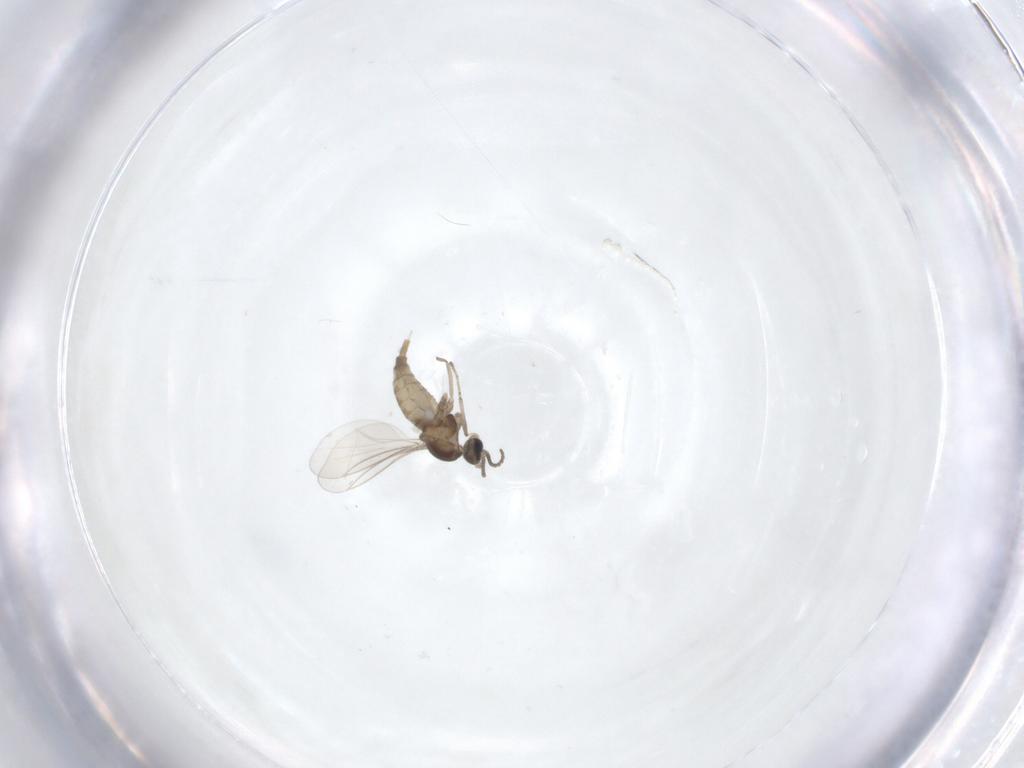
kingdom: Animalia
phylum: Arthropoda
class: Insecta
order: Diptera
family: Cecidomyiidae
